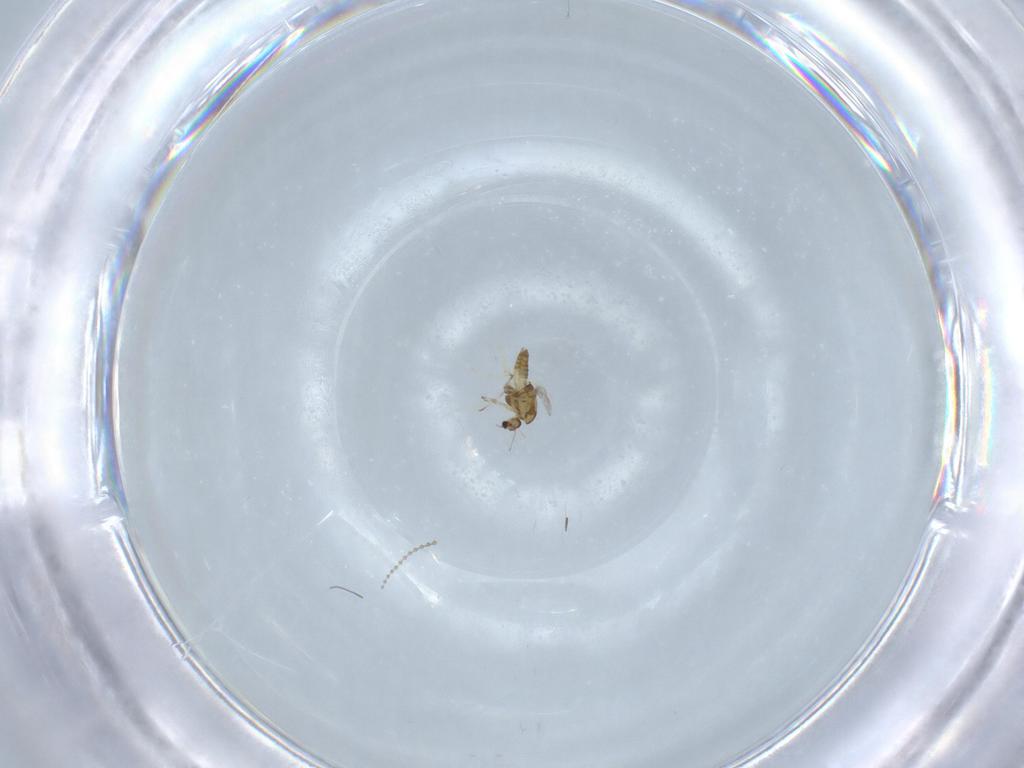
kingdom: Animalia
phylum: Arthropoda
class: Insecta
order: Diptera
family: Chironomidae
